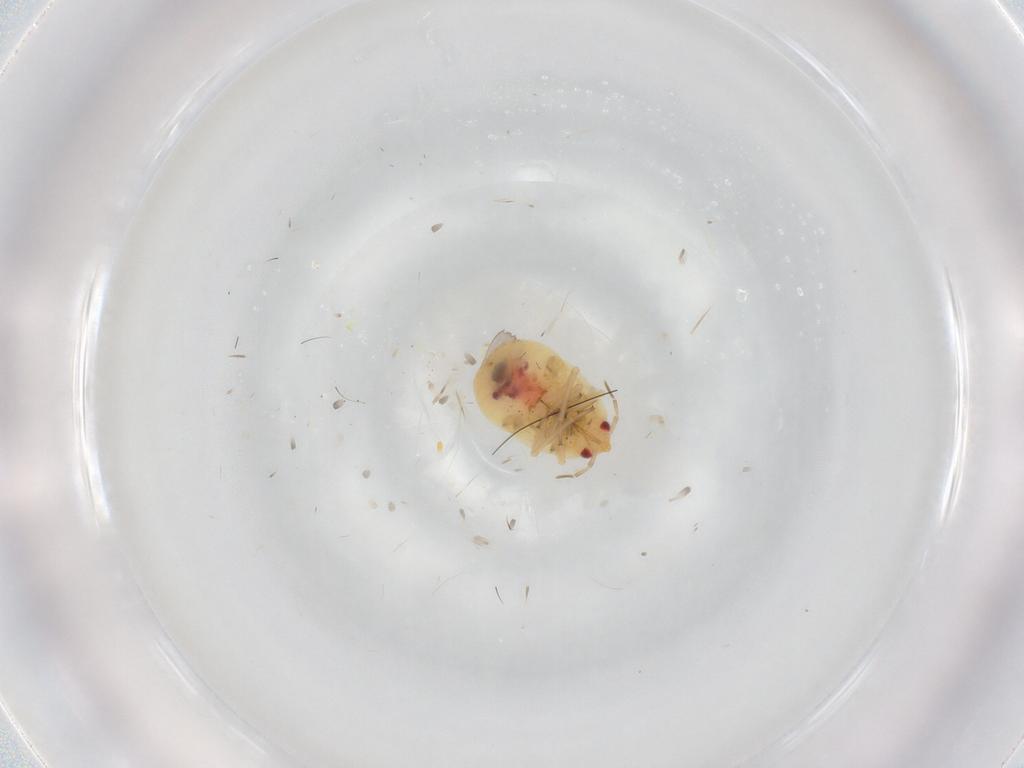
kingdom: Animalia
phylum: Arthropoda
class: Insecta
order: Hemiptera
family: Anthocoridae
